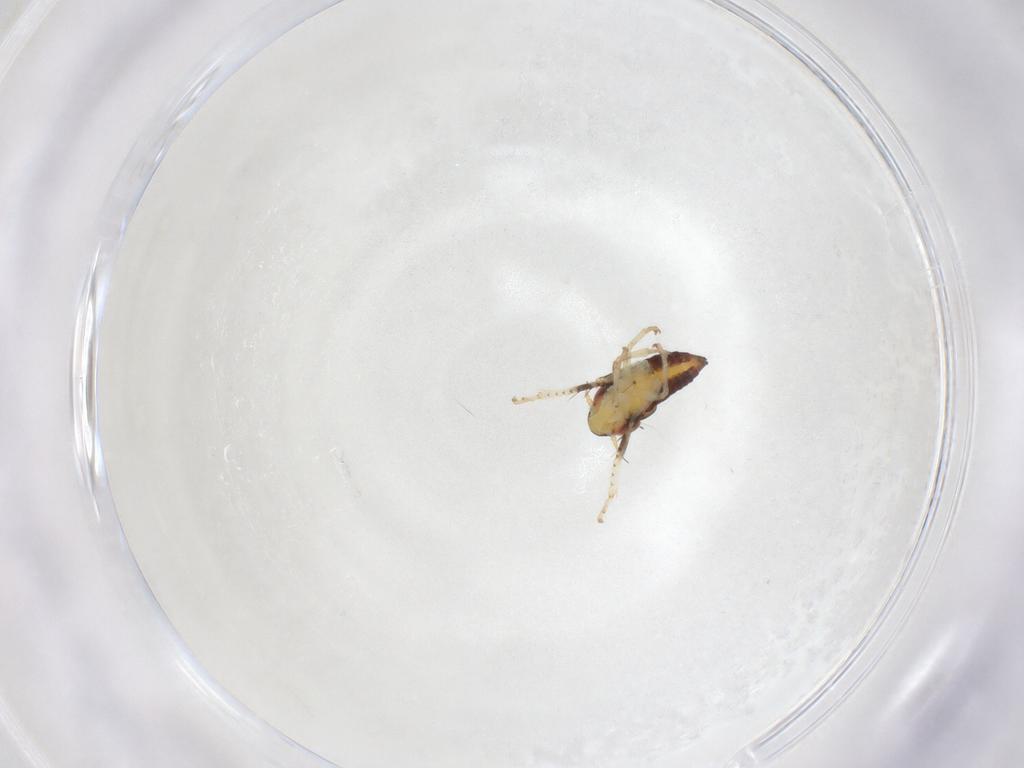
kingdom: Animalia
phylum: Arthropoda
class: Insecta
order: Hemiptera
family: Cicadellidae
